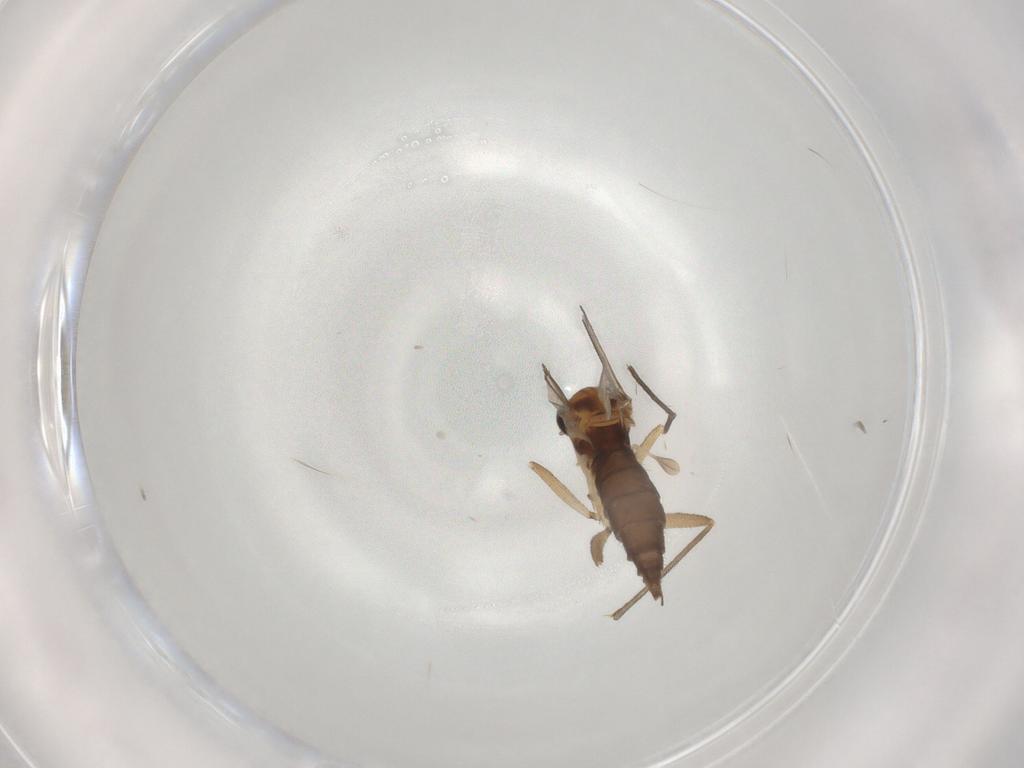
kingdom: Animalia
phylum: Arthropoda
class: Insecta
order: Diptera
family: Sciaridae
